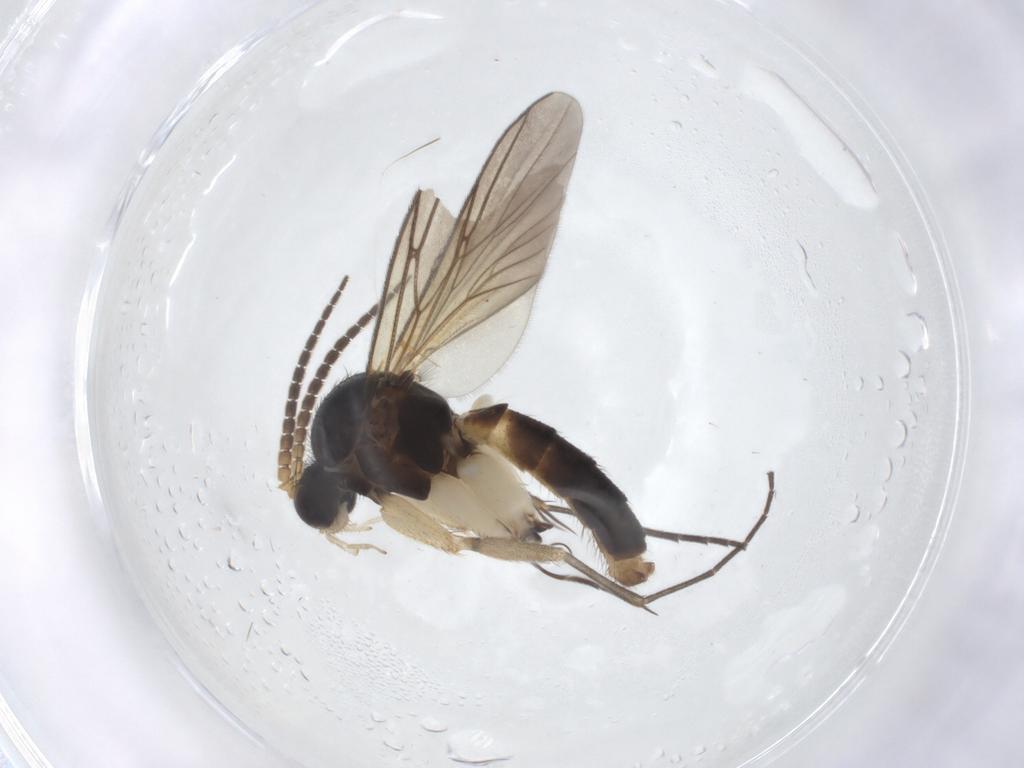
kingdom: Animalia
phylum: Arthropoda
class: Insecta
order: Diptera
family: Mycetophilidae
